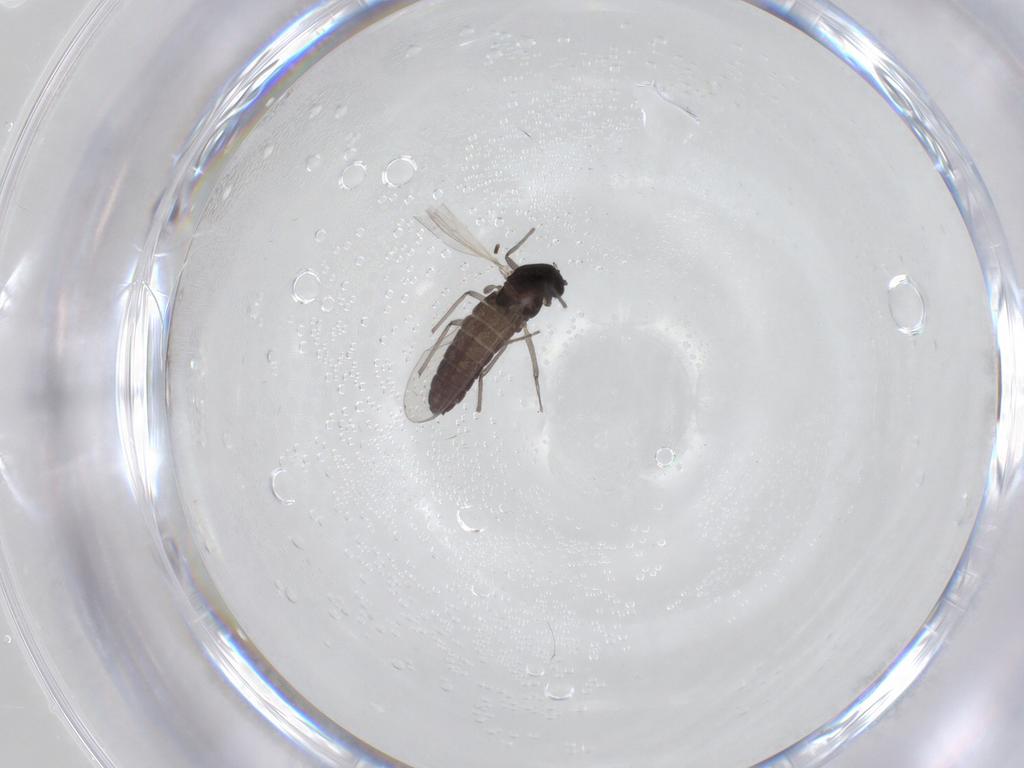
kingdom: Animalia
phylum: Arthropoda
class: Insecta
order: Diptera
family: Sciaridae
